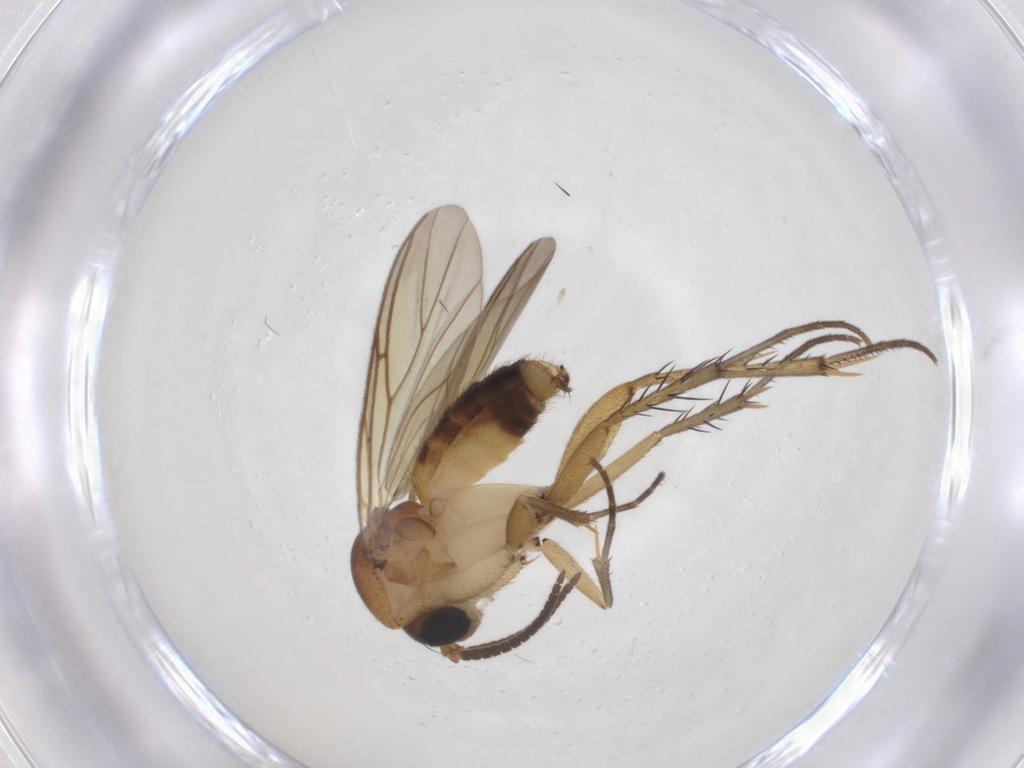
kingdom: Animalia
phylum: Arthropoda
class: Insecta
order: Diptera
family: Mycetophilidae
